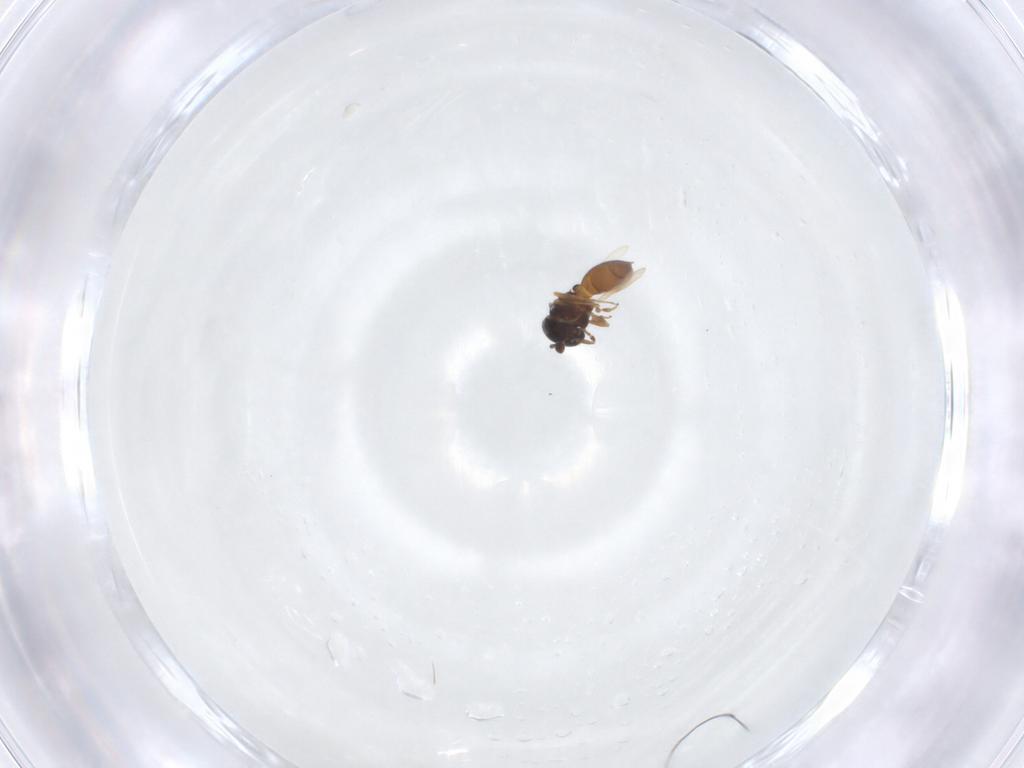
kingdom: Animalia
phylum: Arthropoda
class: Insecta
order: Hymenoptera
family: Scelionidae
